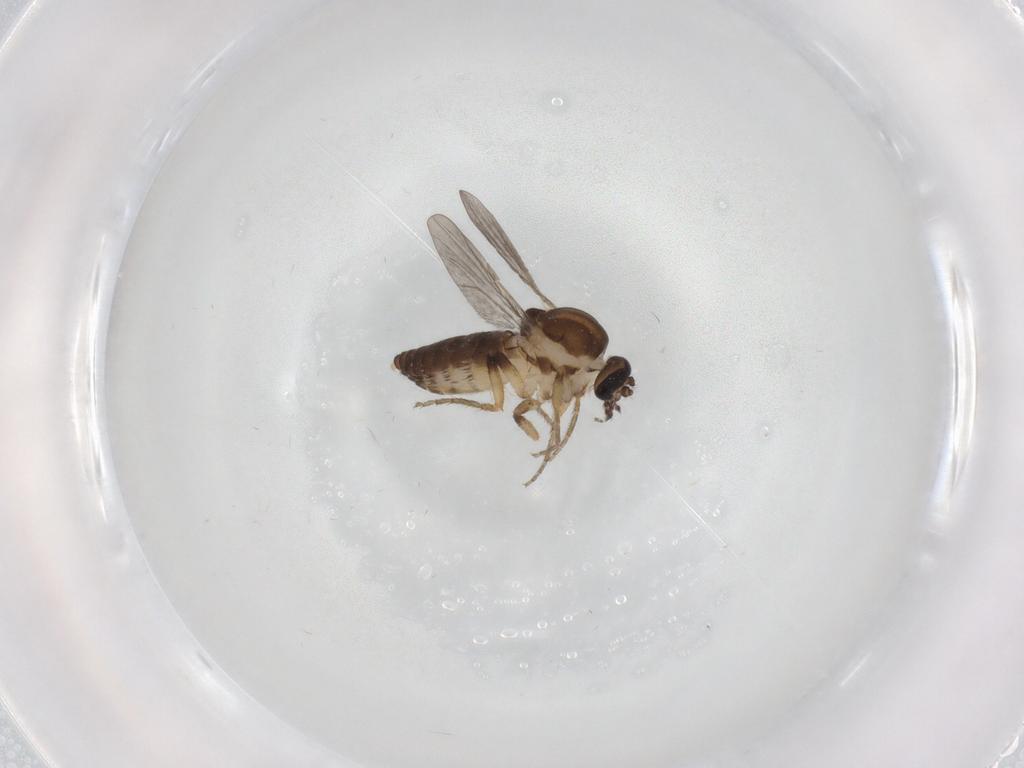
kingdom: Animalia
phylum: Arthropoda
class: Insecta
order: Diptera
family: Ceratopogonidae
